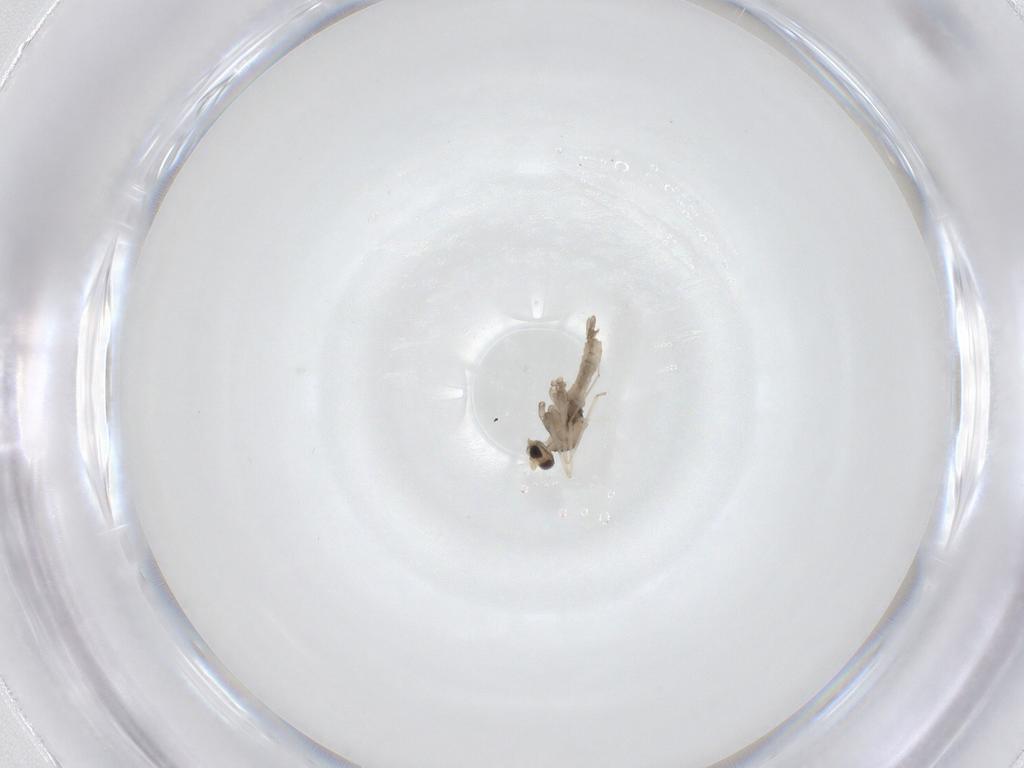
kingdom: Animalia
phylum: Arthropoda
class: Insecta
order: Diptera
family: Cecidomyiidae
